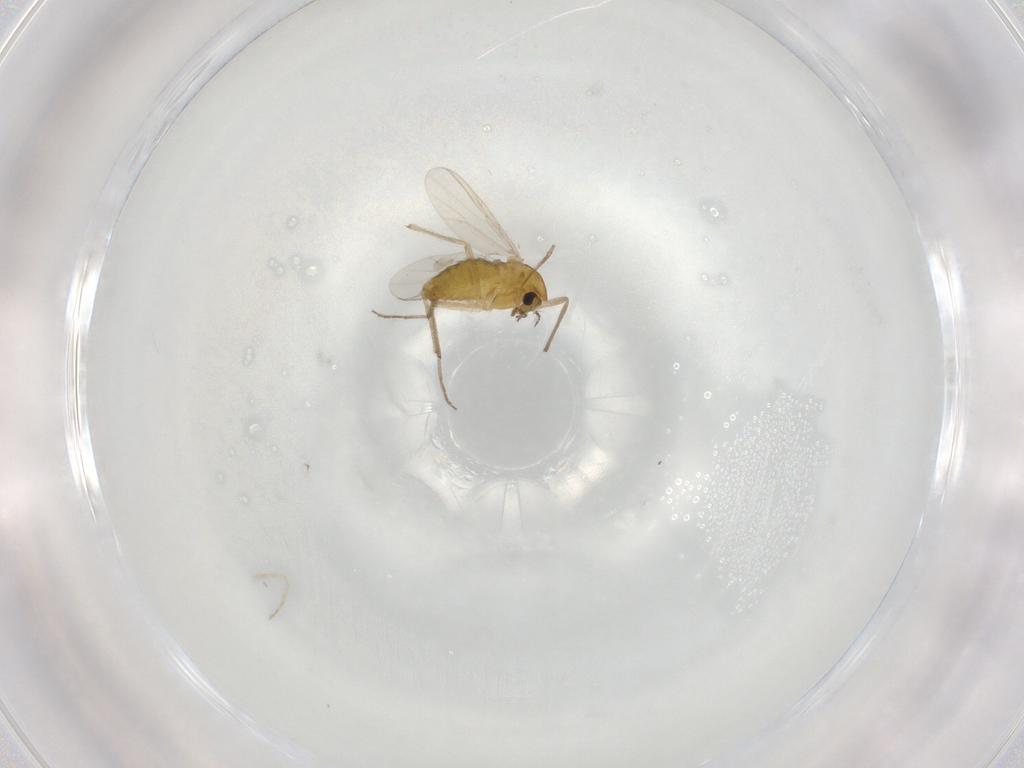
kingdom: Animalia
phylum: Arthropoda
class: Insecta
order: Diptera
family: Chironomidae
